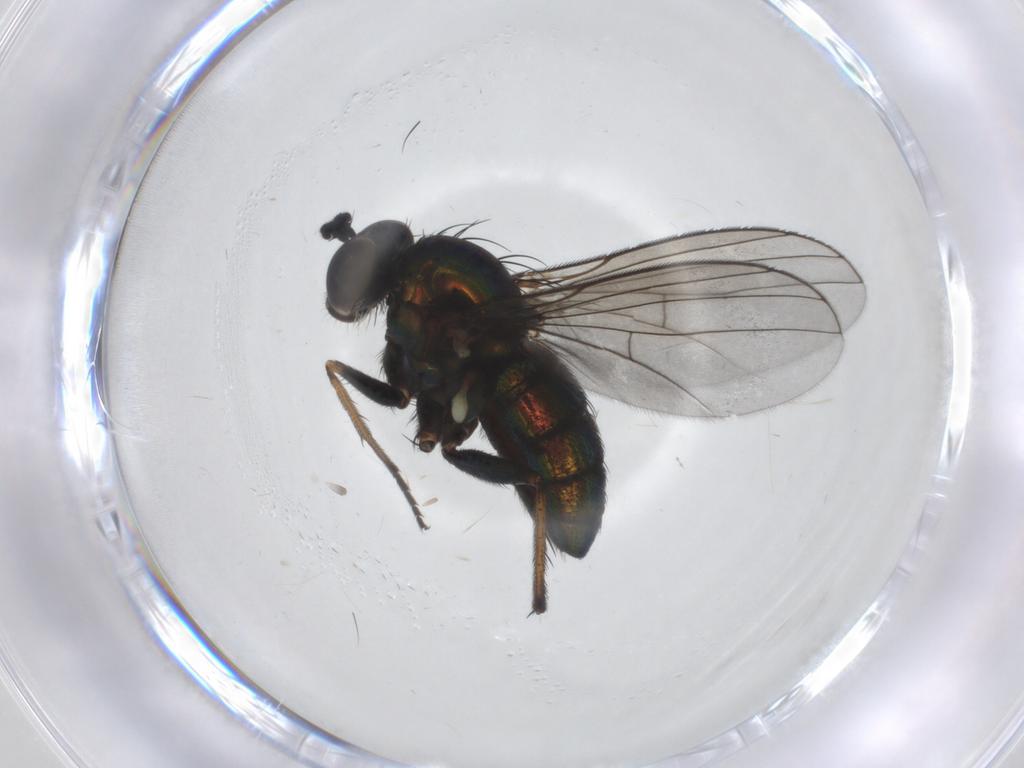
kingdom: Animalia
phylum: Arthropoda
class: Insecta
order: Diptera
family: Dolichopodidae
